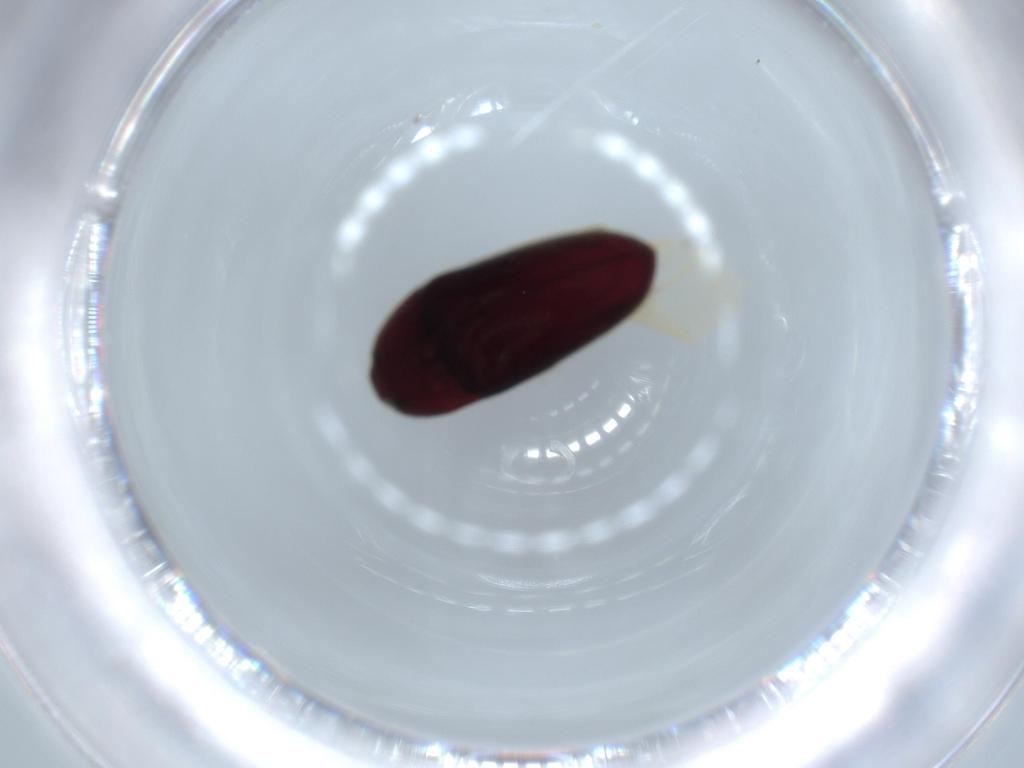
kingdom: Animalia
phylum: Arthropoda
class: Insecta
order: Coleoptera
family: Throscidae
